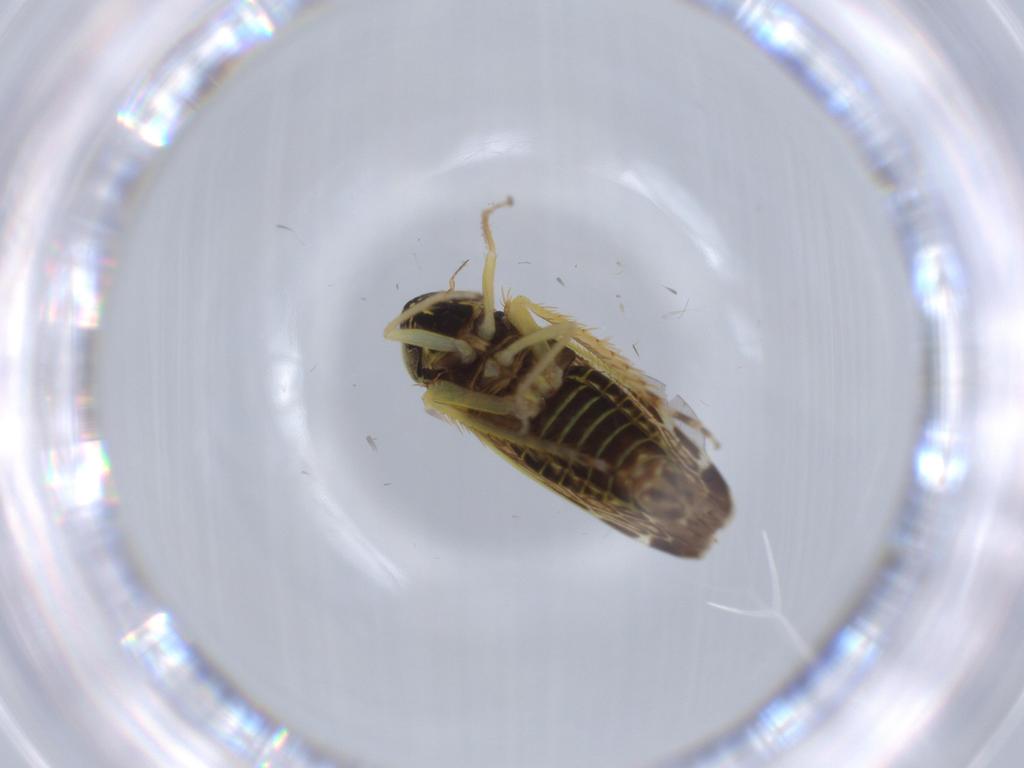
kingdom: Animalia
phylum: Arthropoda
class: Insecta
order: Hemiptera
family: Cicadellidae
